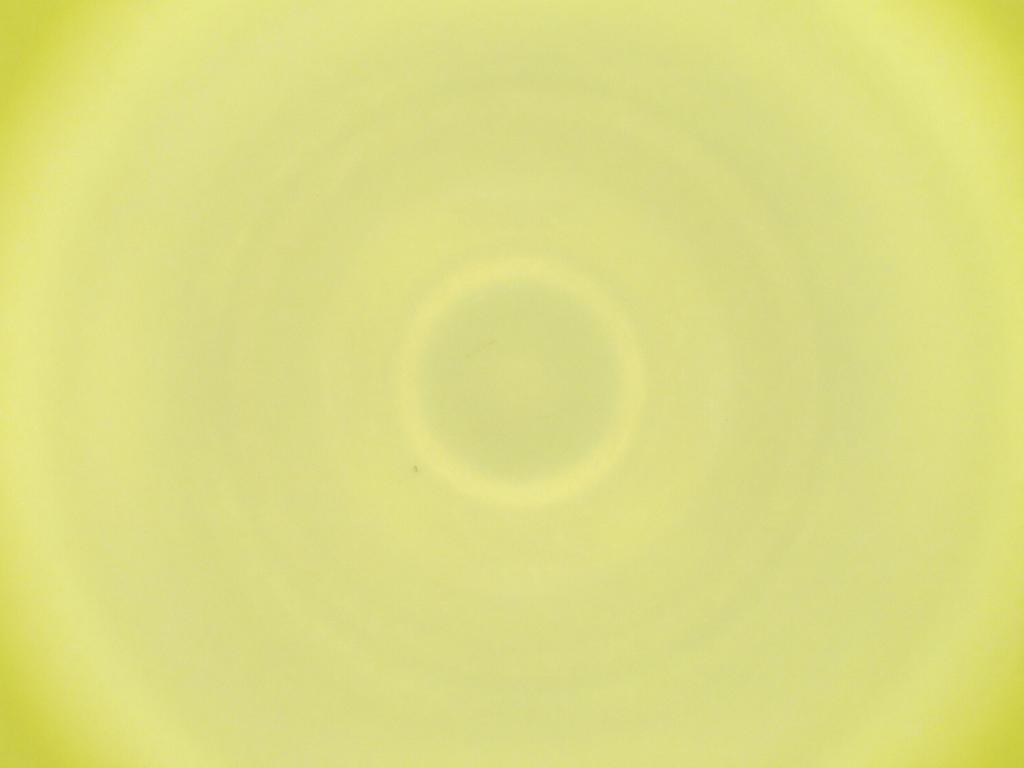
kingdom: Animalia
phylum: Arthropoda
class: Insecta
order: Diptera
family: Cecidomyiidae
